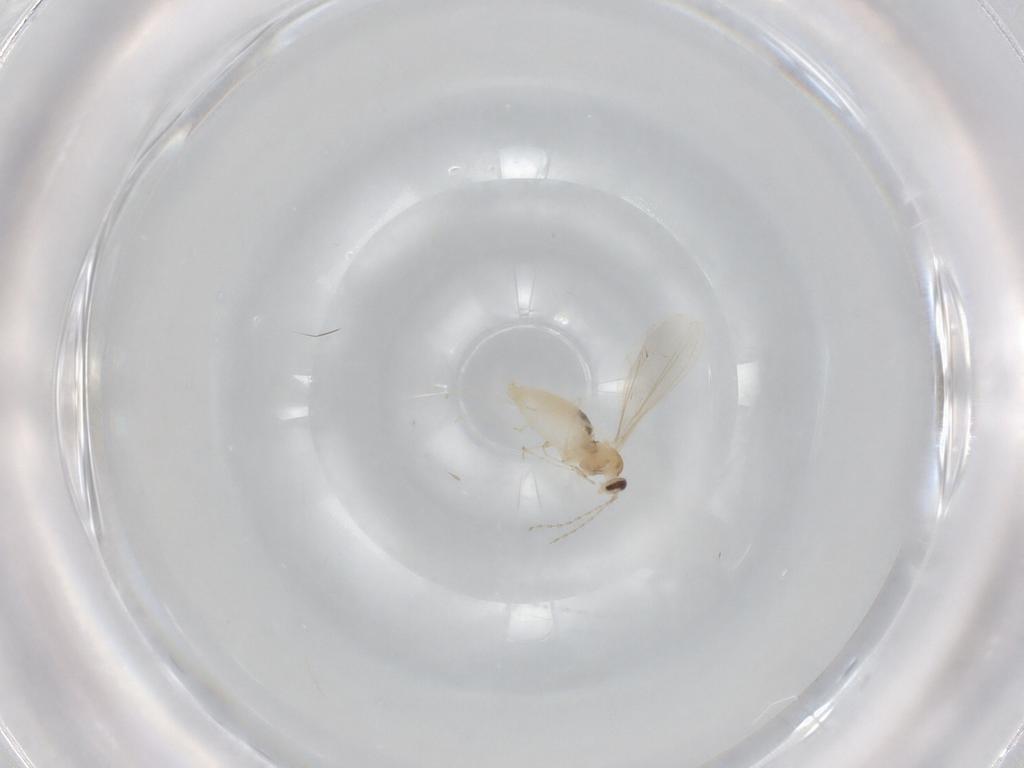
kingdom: Animalia
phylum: Arthropoda
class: Insecta
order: Diptera
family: Cecidomyiidae
